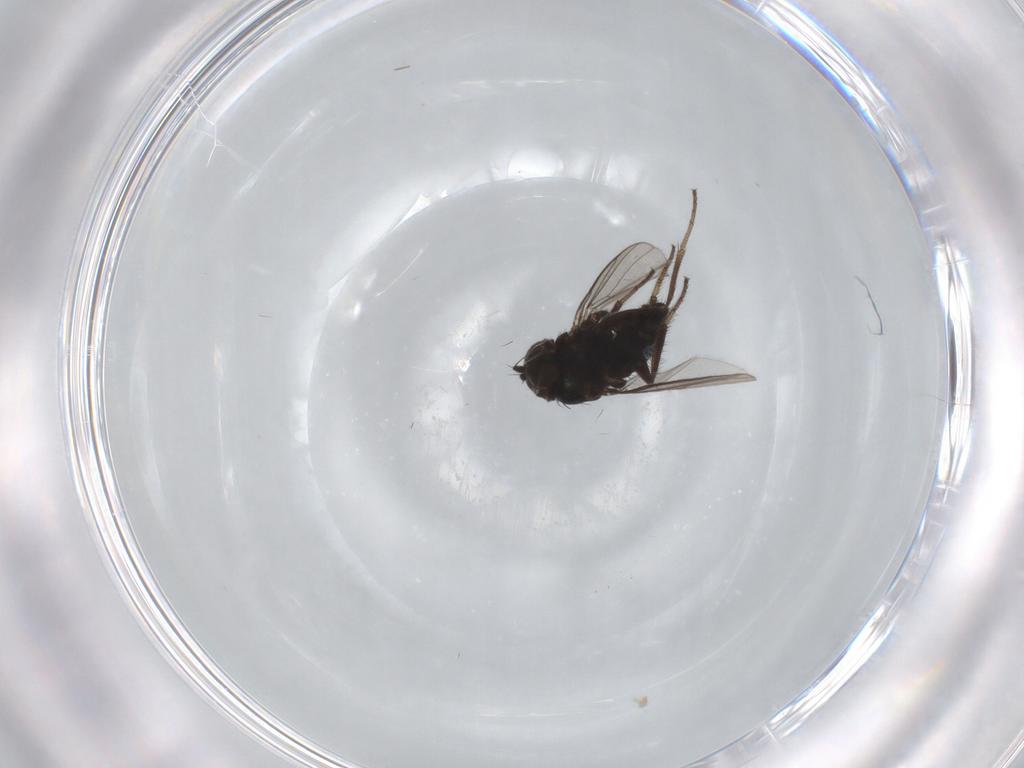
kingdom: Animalia
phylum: Arthropoda
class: Insecta
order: Diptera
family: Dolichopodidae
